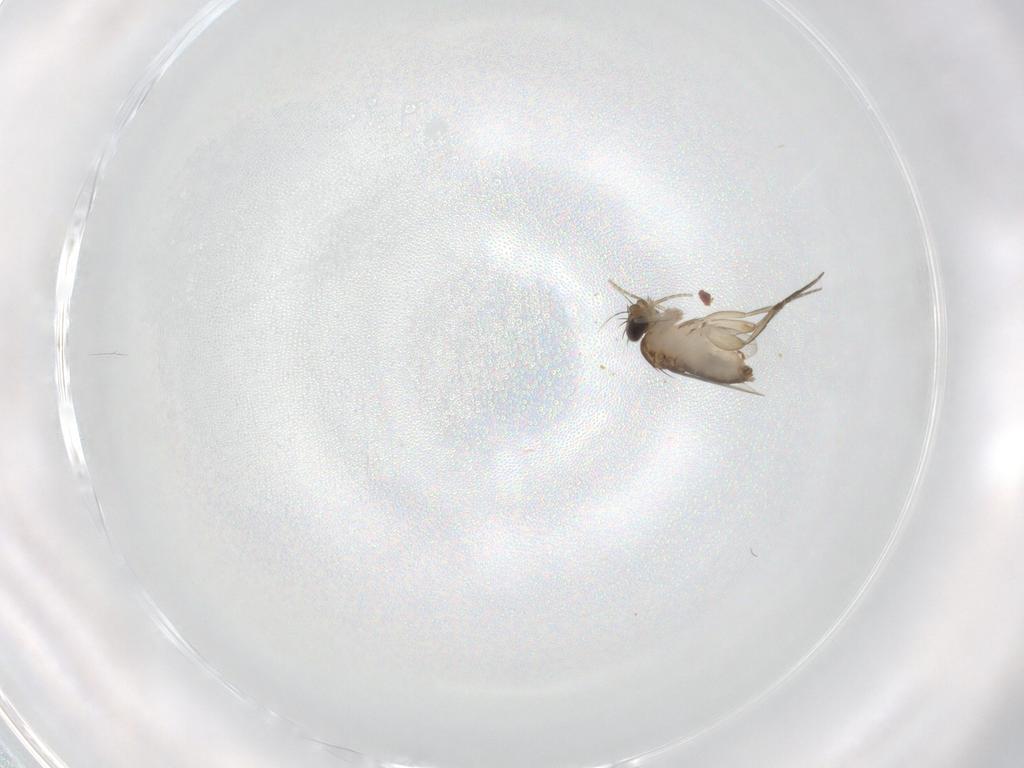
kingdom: Animalia
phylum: Arthropoda
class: Insecta
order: Diptera
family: Phoridae
